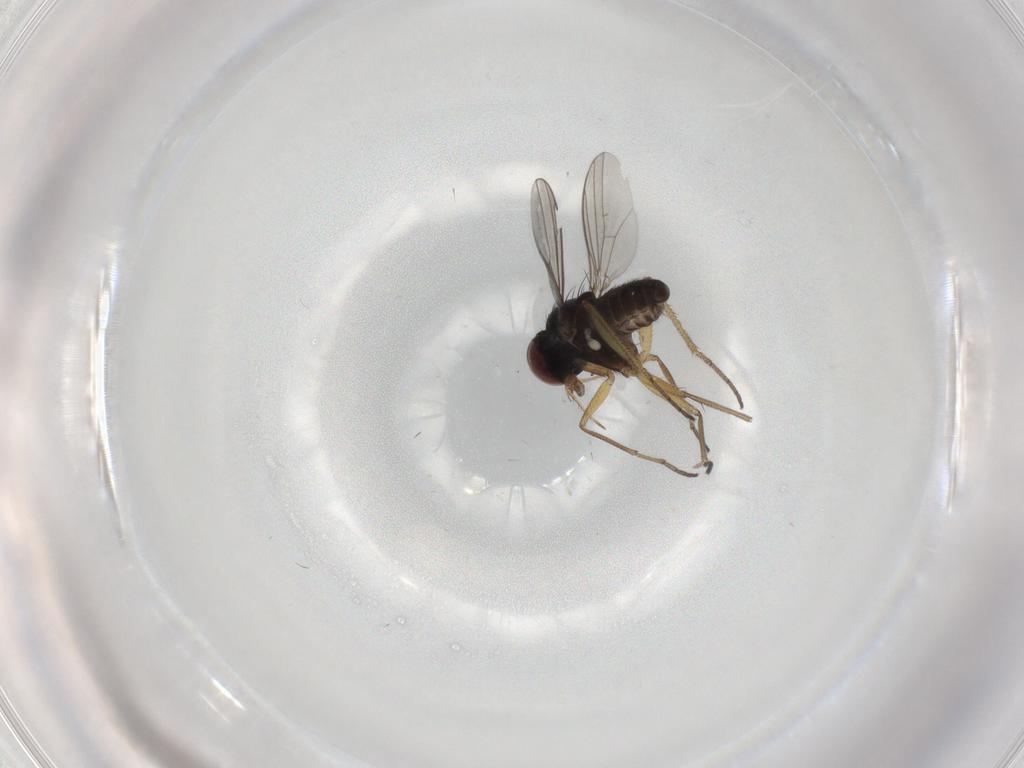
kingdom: Animalia
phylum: Arthropoda
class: Insecta
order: Diptera
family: Dolichopodidae
